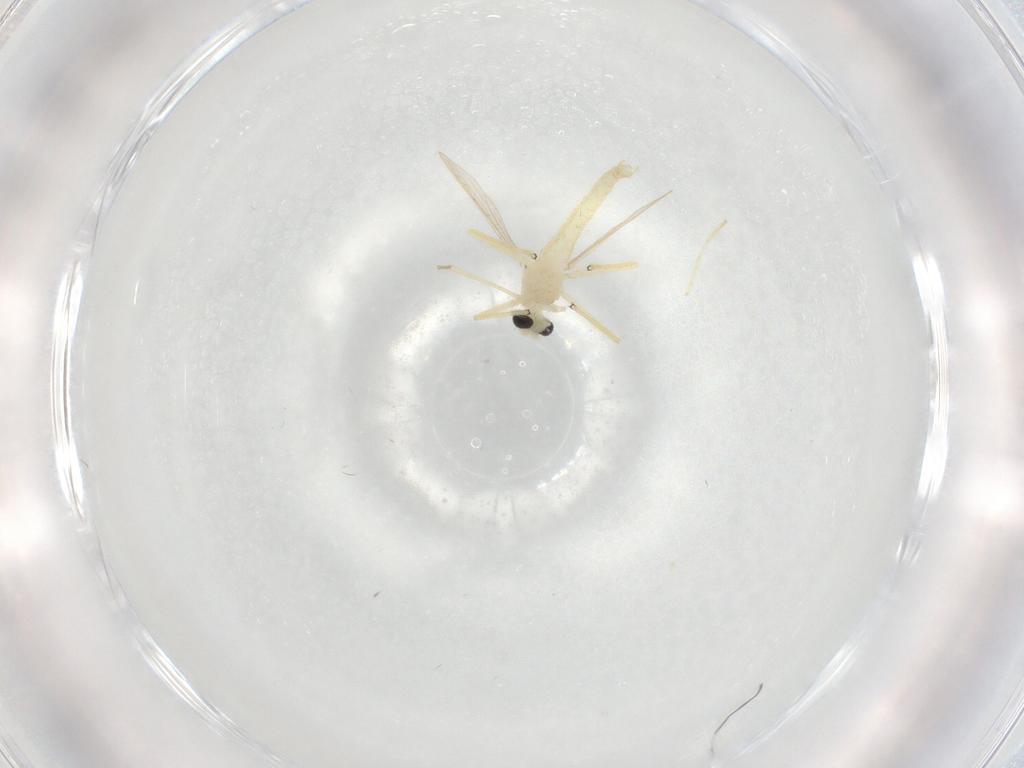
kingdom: Animalia
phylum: Arthropoda
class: Insecta
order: Diptera
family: Chironomidae
